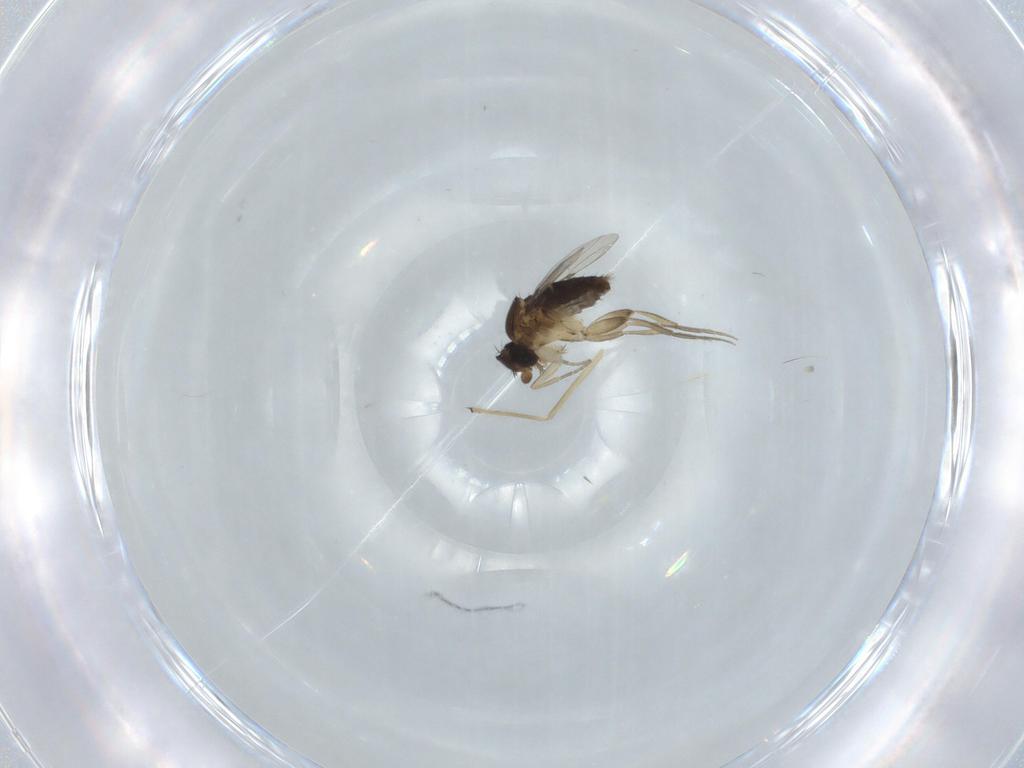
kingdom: Animalia
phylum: Arthropoda
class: Insecta
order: Diptera
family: Phoridae
